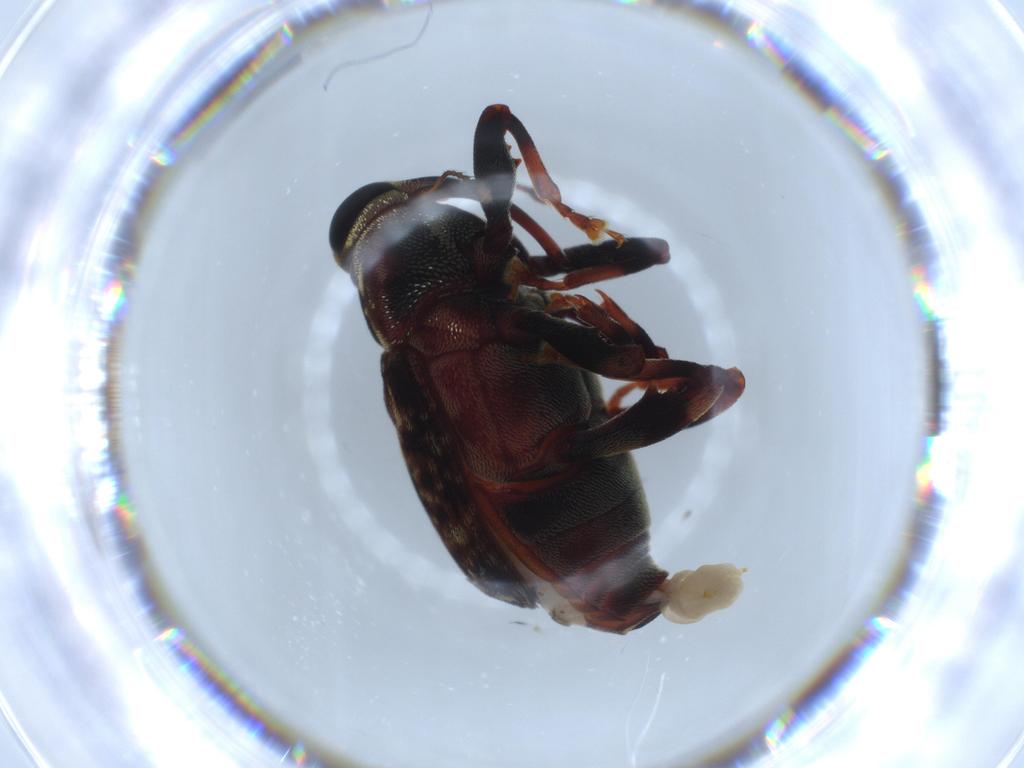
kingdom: Animalia
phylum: Arthropoda
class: Insecta
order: Coleoptera
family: Curculionidae
